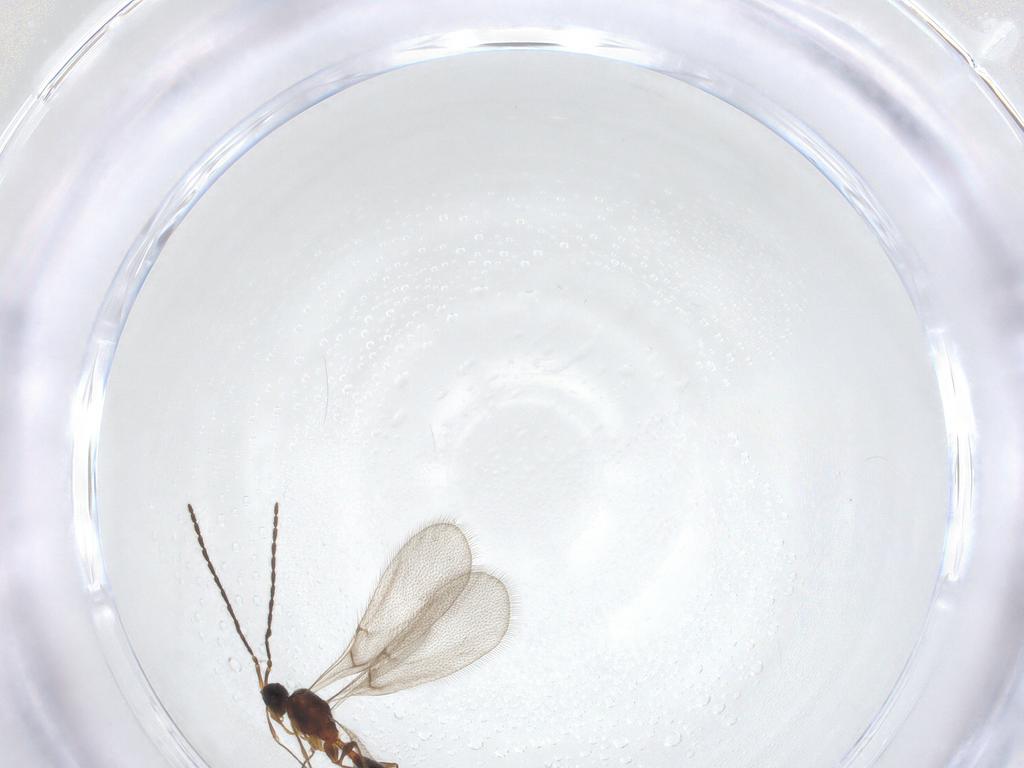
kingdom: Animalia
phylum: Arthropoda
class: Insecta
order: Hymenoptera
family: Diapriidae
